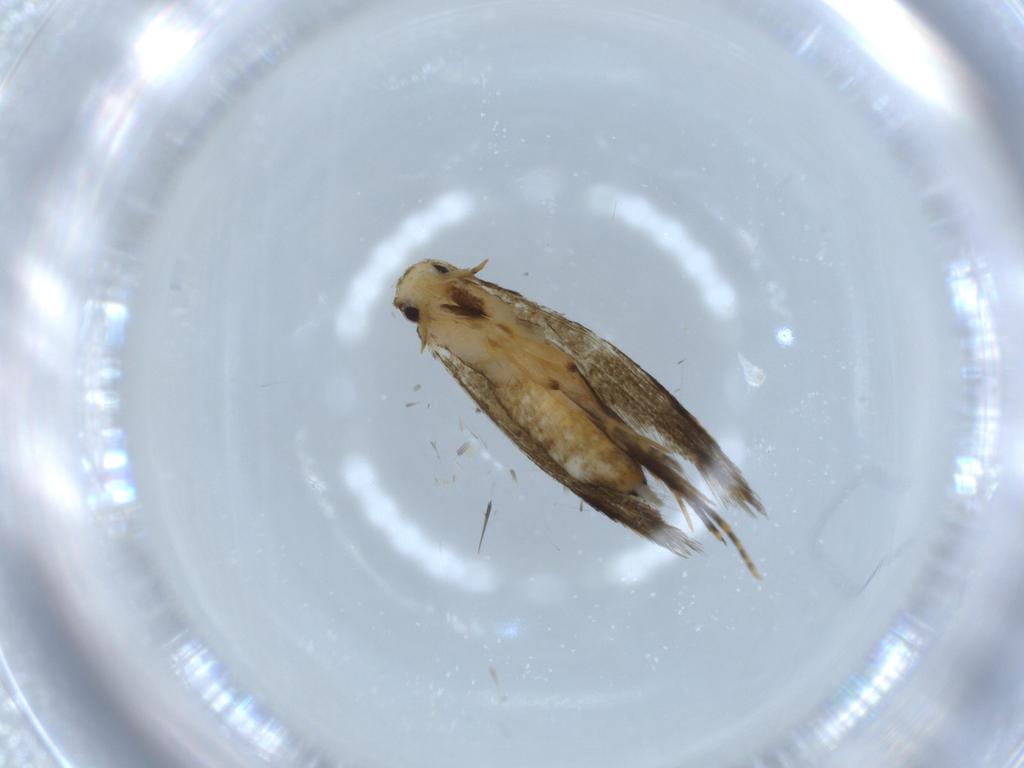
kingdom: Animalia
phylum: Arthropoda
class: Insecta
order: Lepidoptera
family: Tineidae
